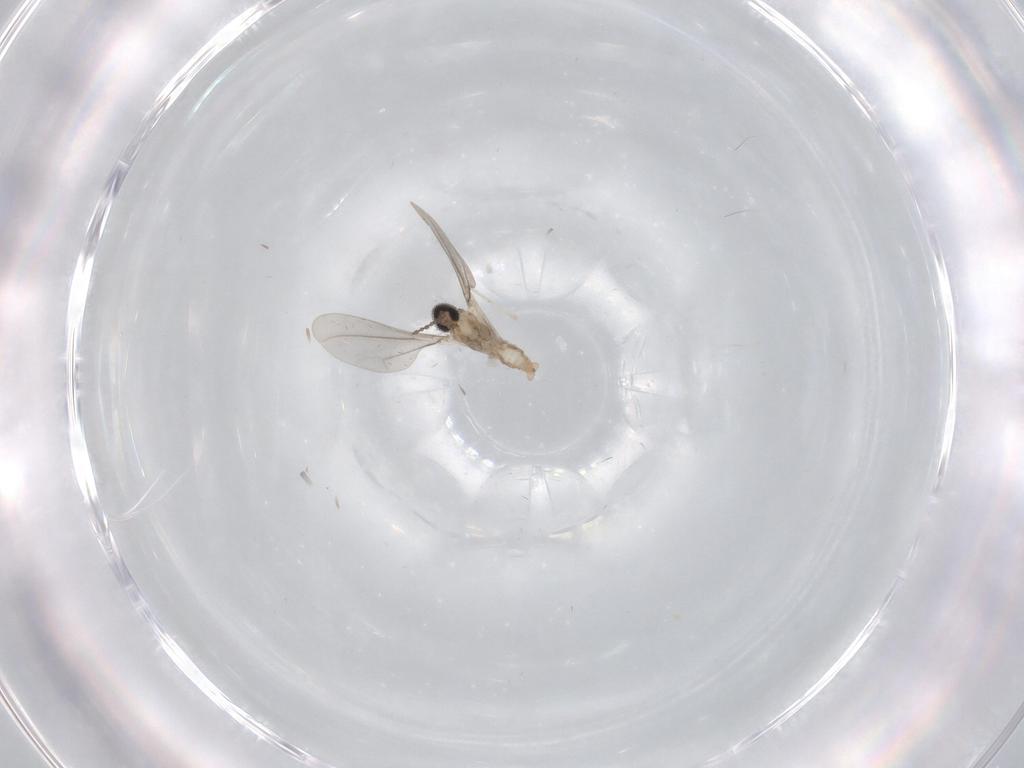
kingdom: Animalia
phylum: Arthropoda
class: Insecta
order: Diptera
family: Cecidomyiidae
